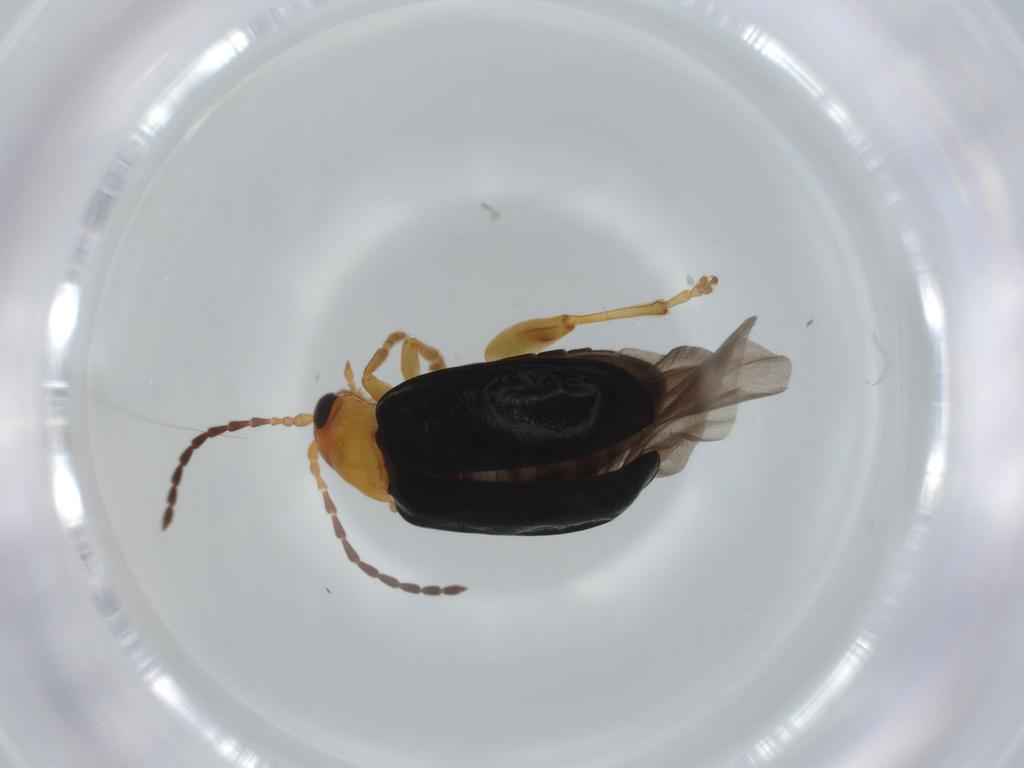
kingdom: Animalia
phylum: Arthropoda
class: Insecta
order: Coleoptera
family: Chrysomelidae
